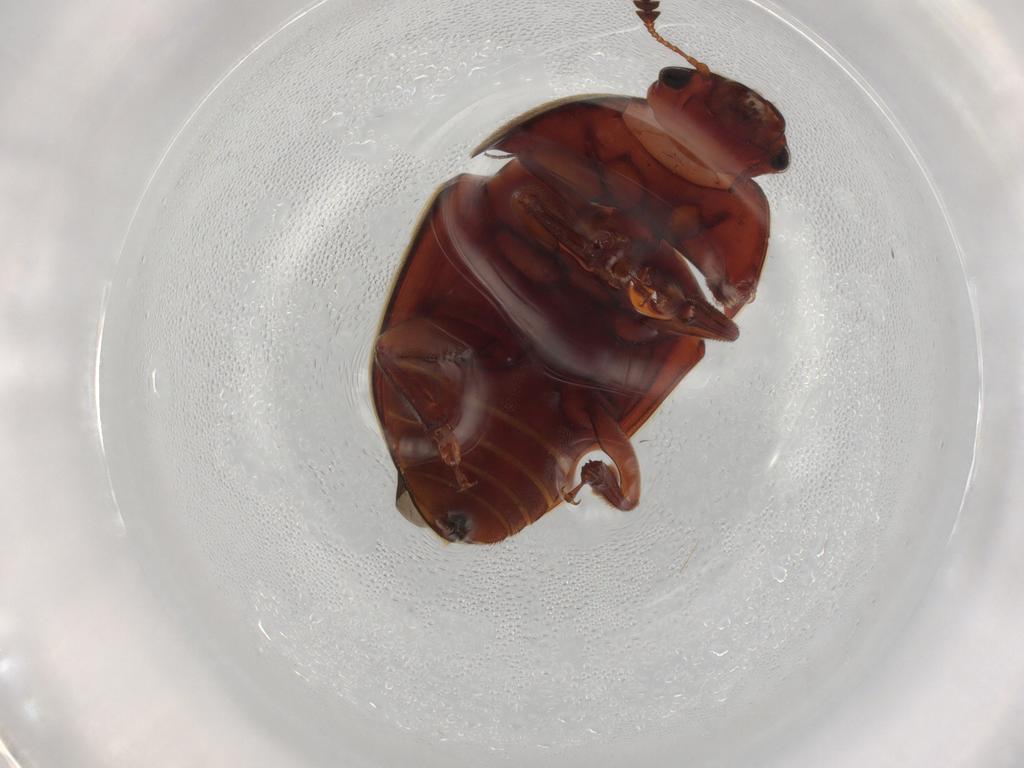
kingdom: Animalia
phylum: Arthropoda
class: Insecta
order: Coleoptera
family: Nitidulidae
